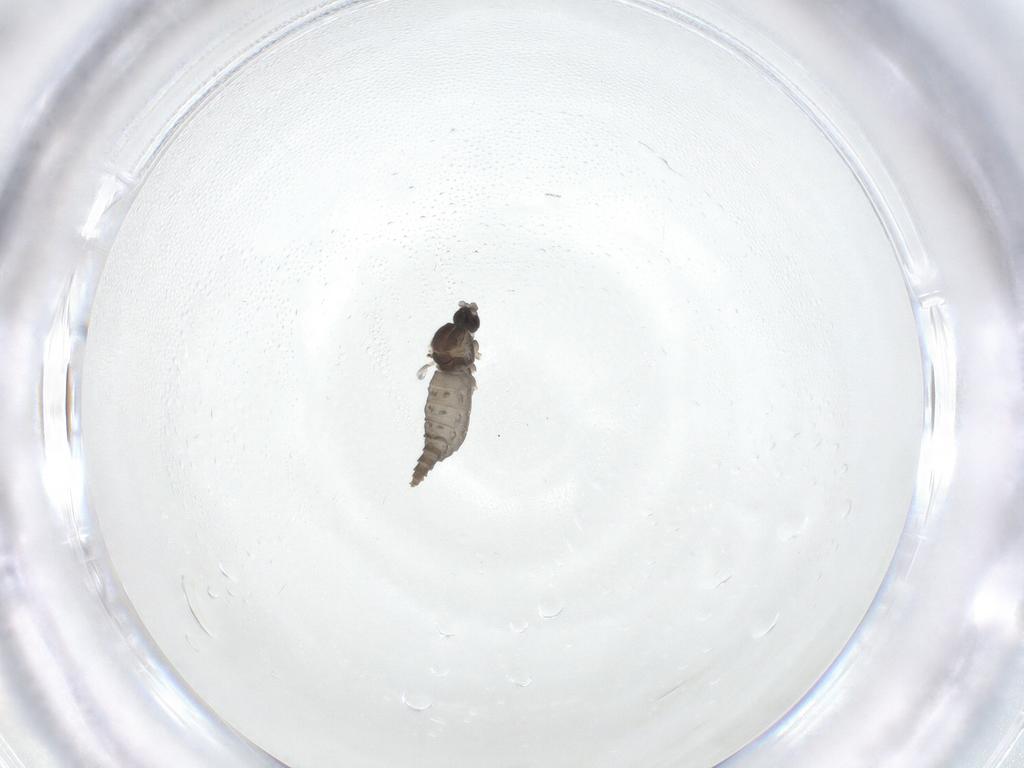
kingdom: Animalia
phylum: Arthropoda
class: Insecta
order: Diptera
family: Cecidomyiidae
